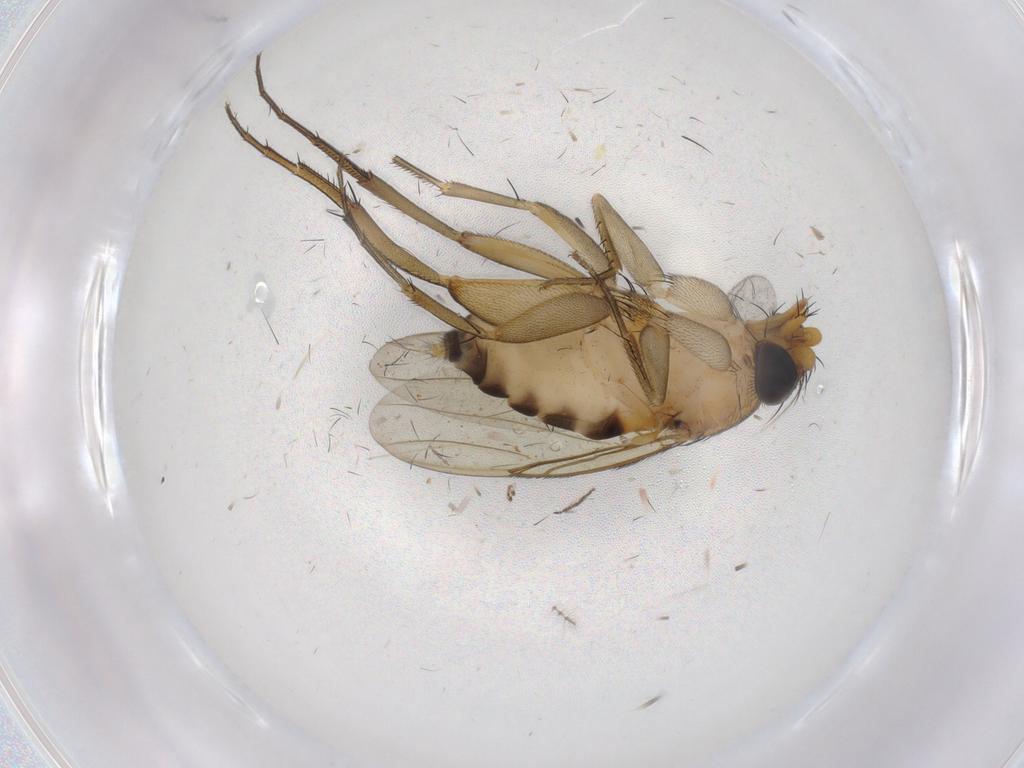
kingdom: Animalia
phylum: Arthropoda
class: Insecta
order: Diptera
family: Phoridae
